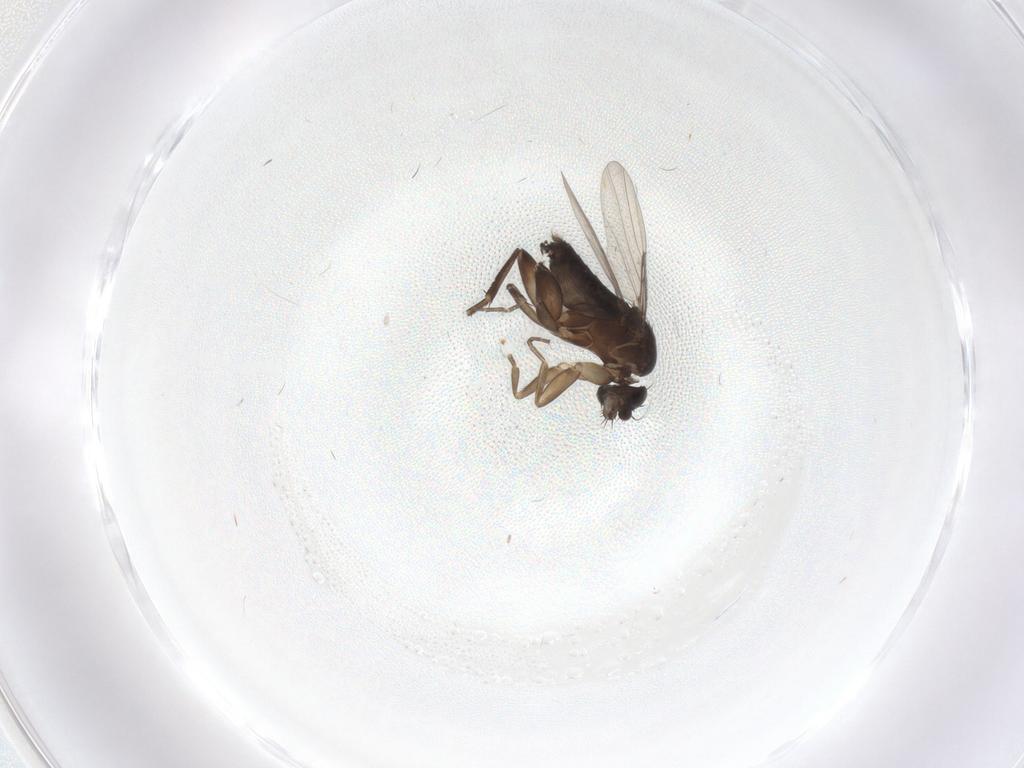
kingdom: Animalia
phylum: Arthropoda
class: Insecta
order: Diptera
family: Phoridae
